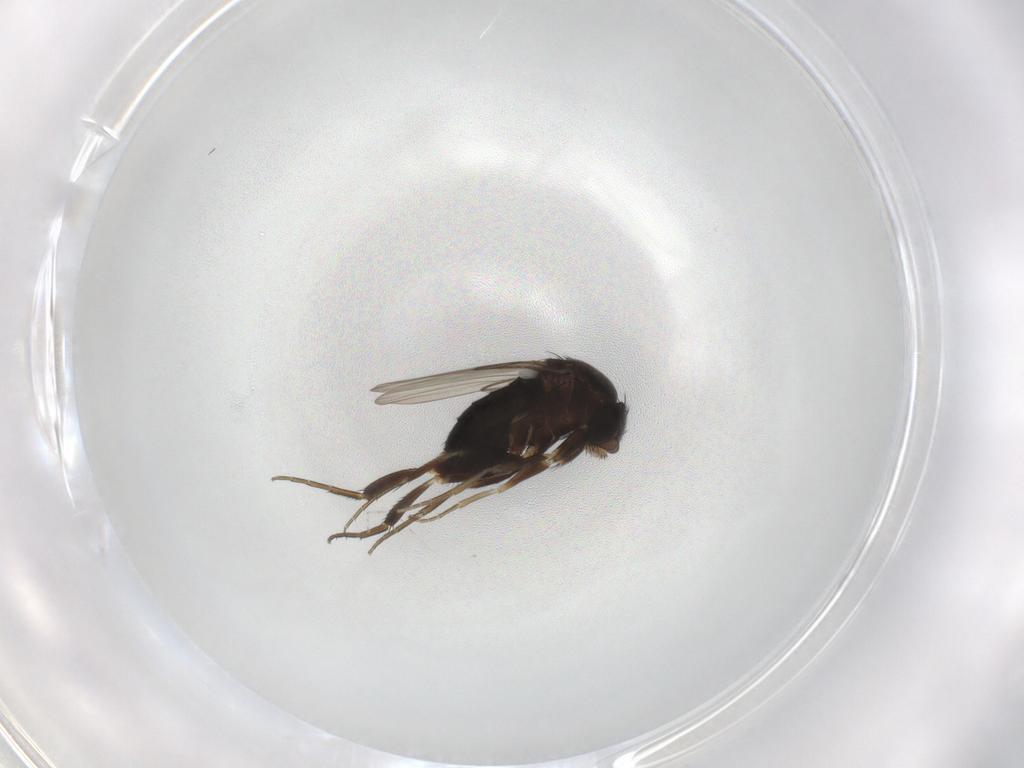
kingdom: Animalia
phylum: Arthropoda
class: Insecta
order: Diptera
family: Phoridae
